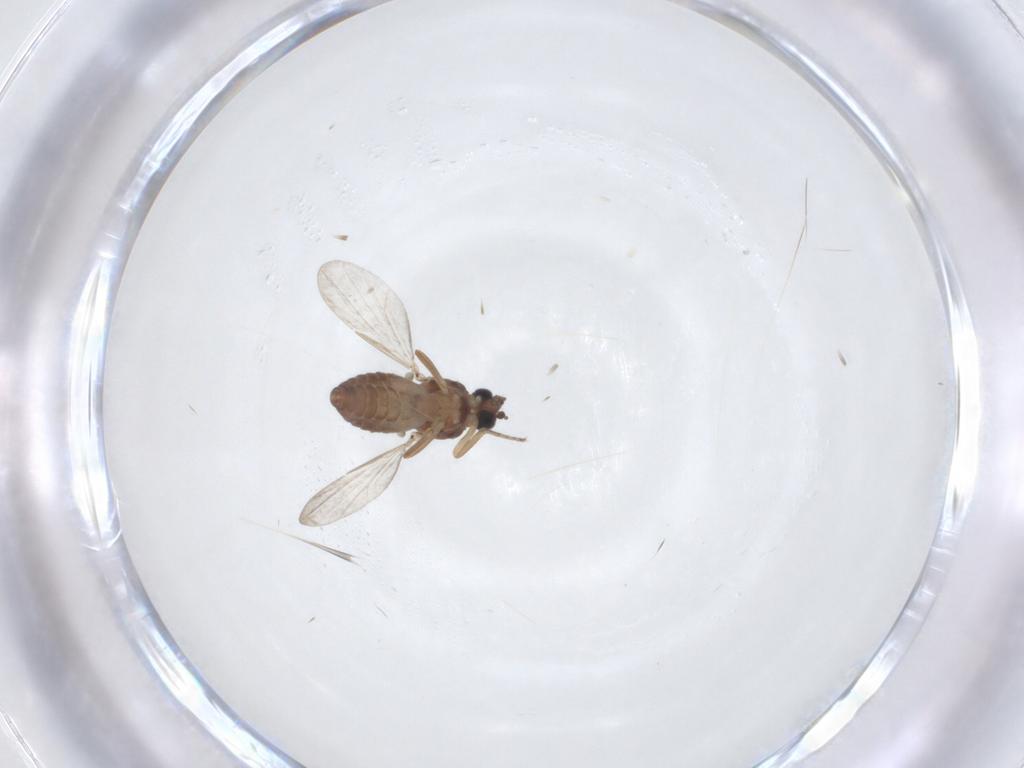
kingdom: Animalia
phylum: Arthropoda
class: Insecta
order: Diptera
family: Ceratopogonidae
